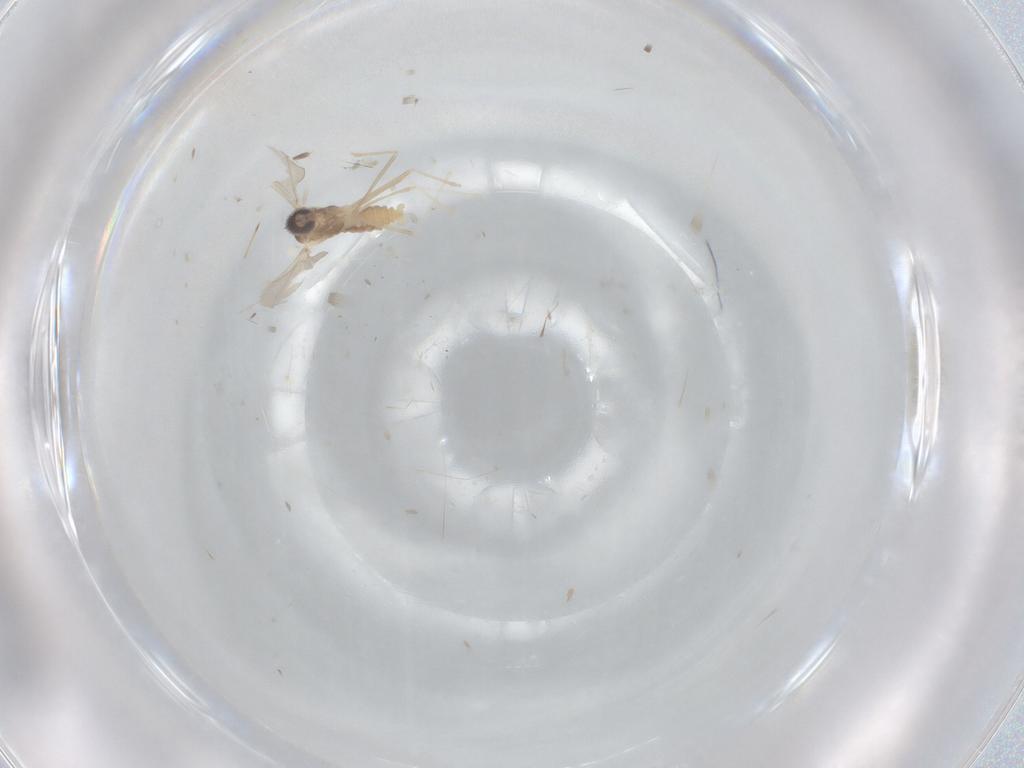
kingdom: Animalia
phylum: Arthropoda
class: Insecta
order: Diptera
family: Cecidomyiidae
